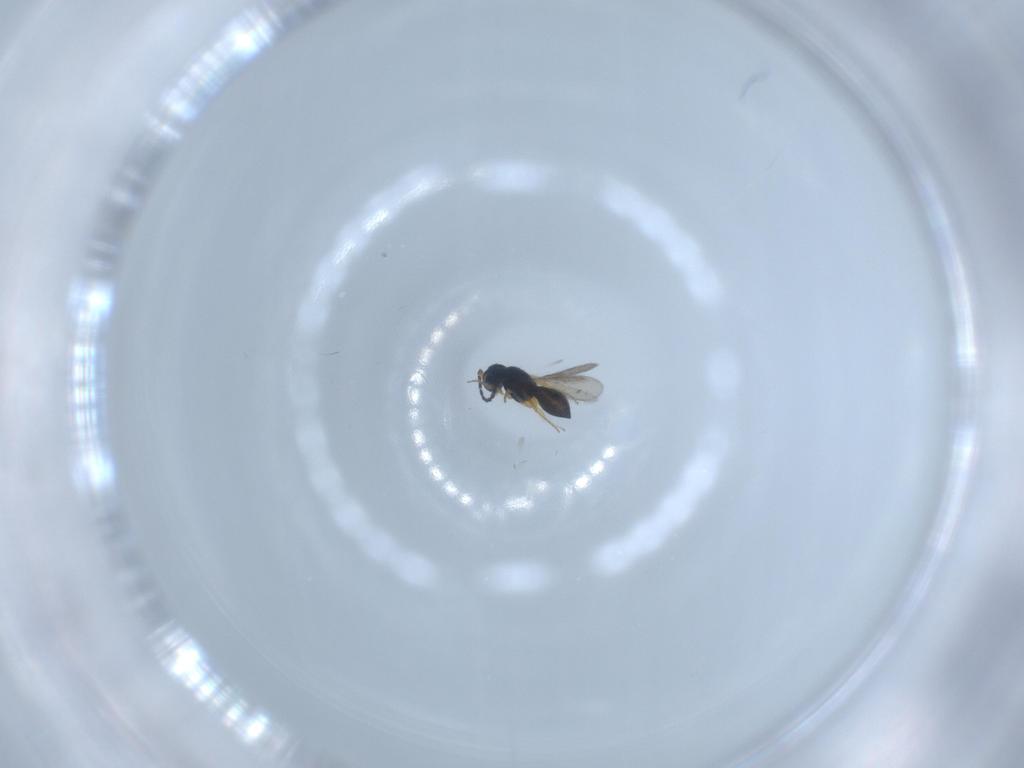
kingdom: Animalia
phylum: Arthropoda
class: Insecta
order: Hymenoptera
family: Scelionidae
